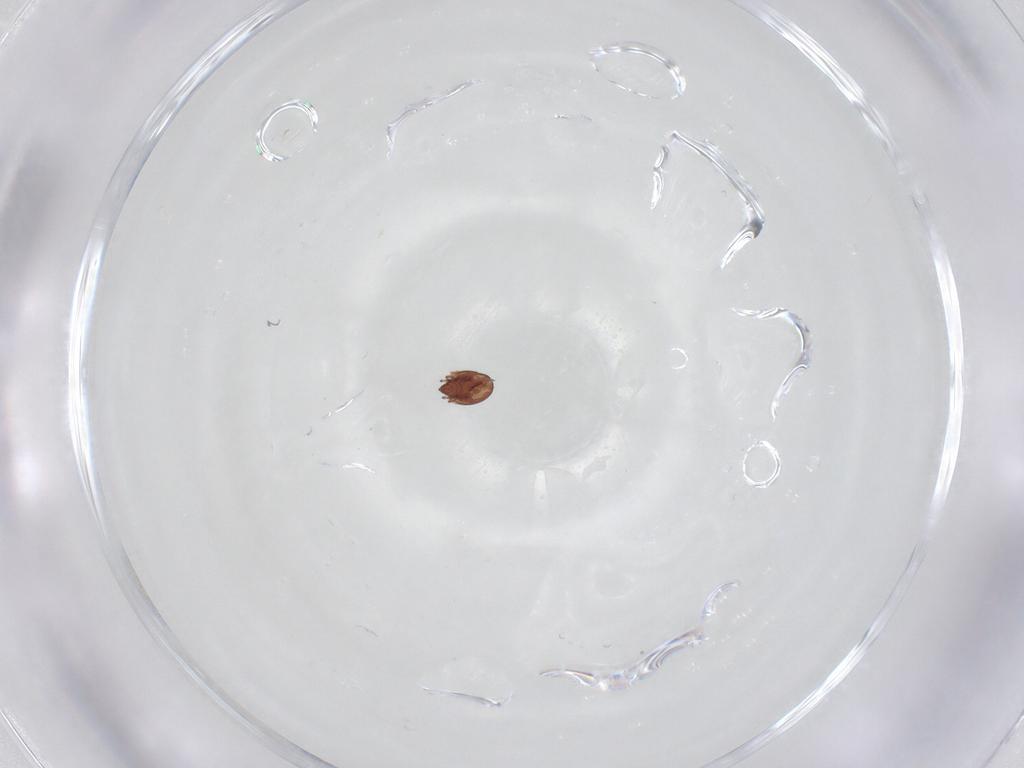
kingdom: Animalia
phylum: Arthropoda
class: Arachnida
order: Sarcoptiformes
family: Scheloribatidae
